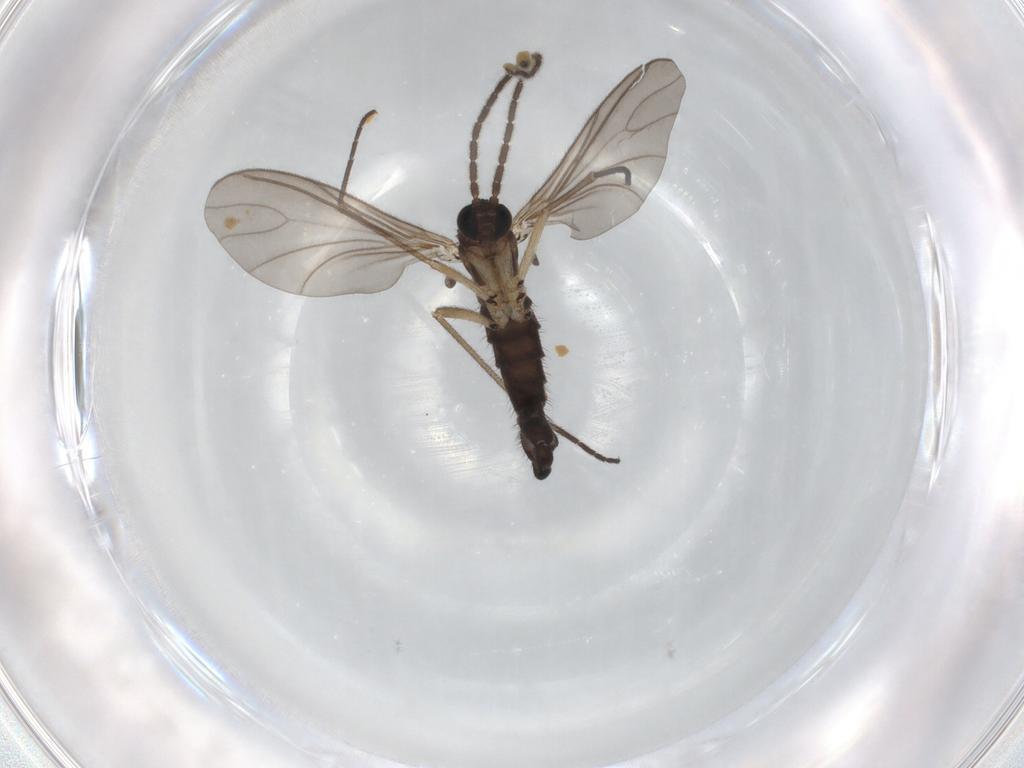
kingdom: Animalia
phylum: Arthropoda
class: Insecta
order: Diptera
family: Sciaridae
